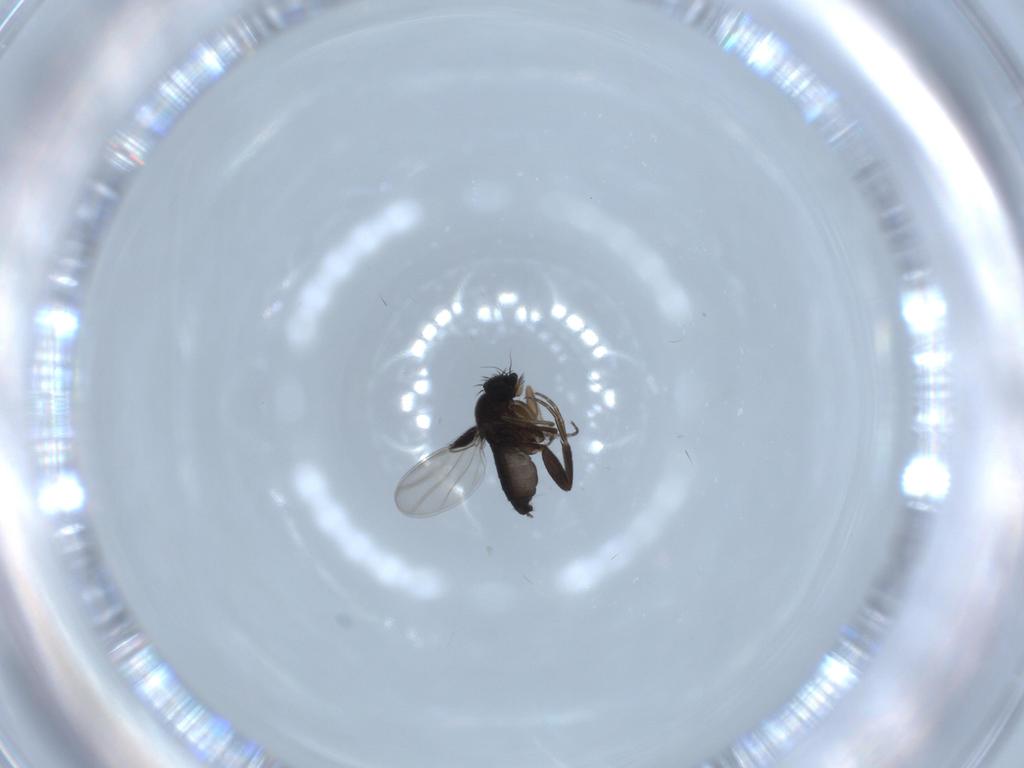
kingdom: Animalia
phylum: Arthropoda
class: Insecta
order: Diptera
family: Phoridae
